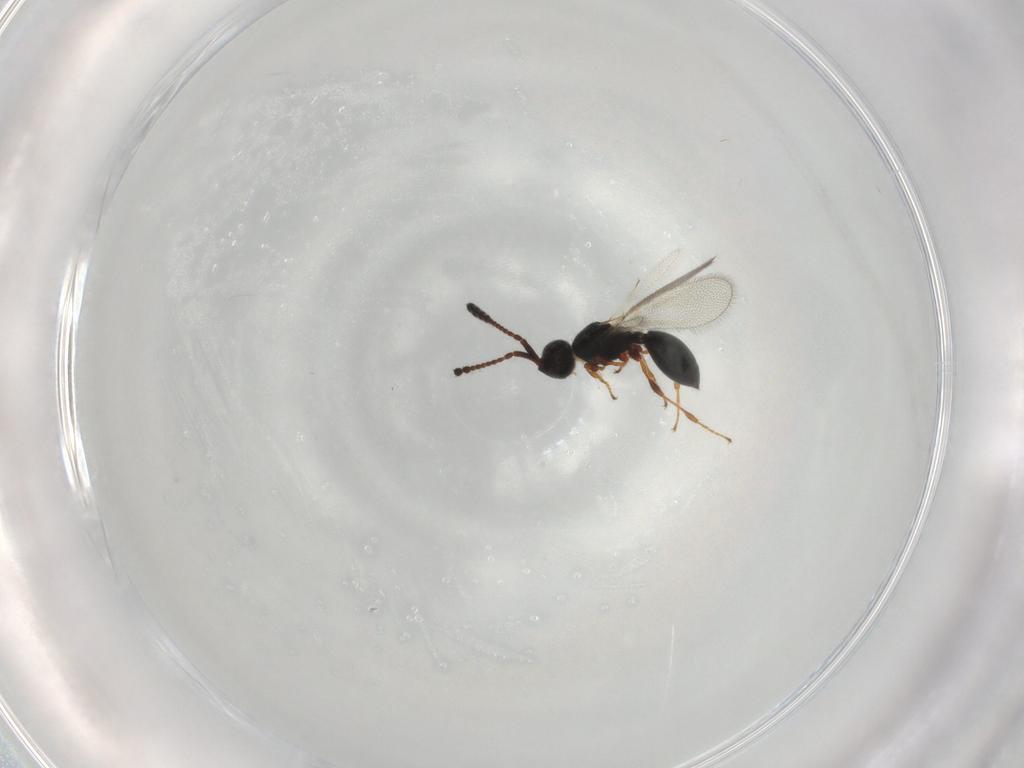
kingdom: Animalia
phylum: Arthropoda
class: Insecta
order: Hymenoptera
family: Diapriidae
